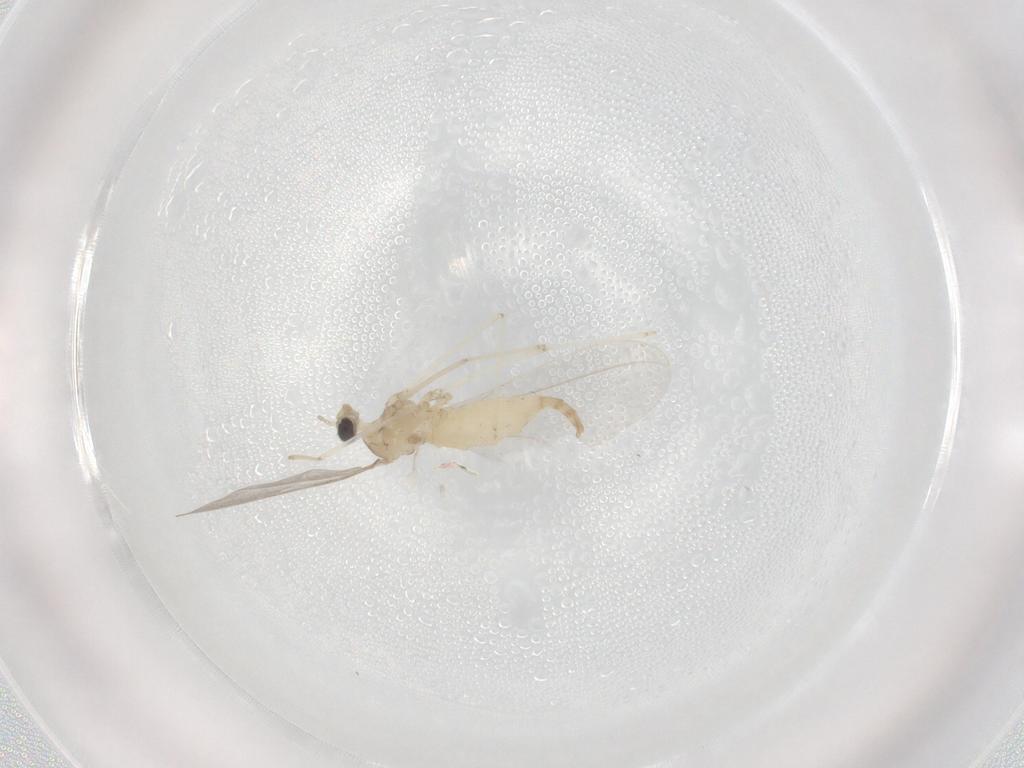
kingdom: Animalia
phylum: Arthropoda
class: Insecta
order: Diptera
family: Cecidomyiidae
